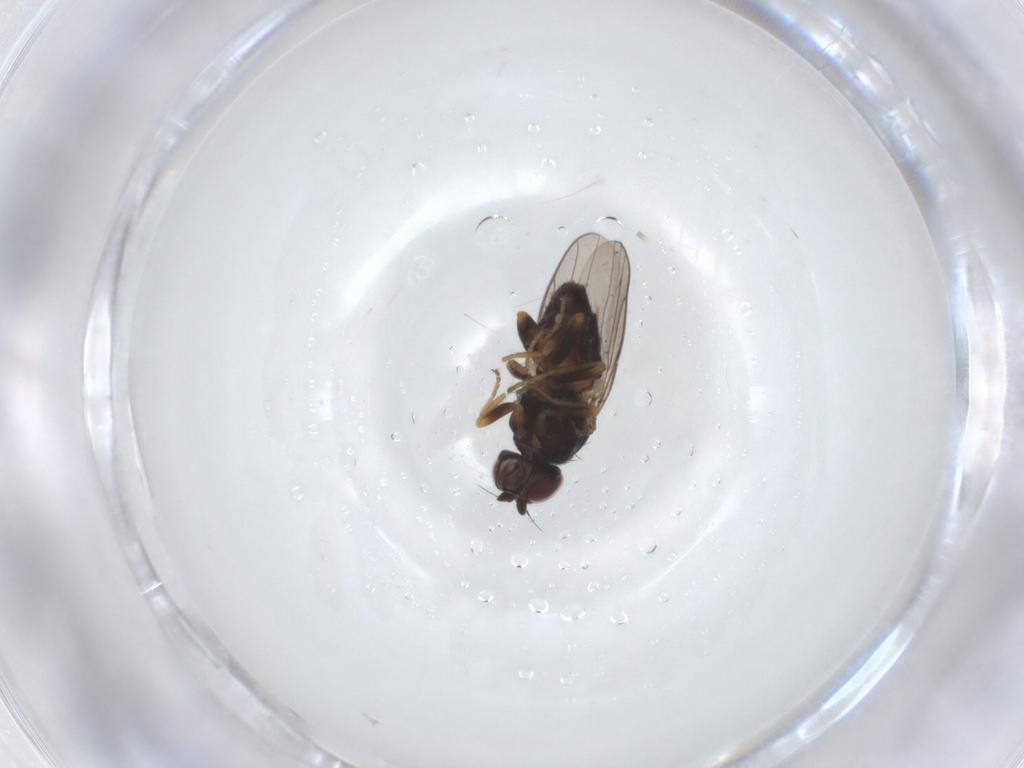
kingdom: Animalia
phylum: Arthropoda
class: Insecta
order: Diptera
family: Chloropidae
